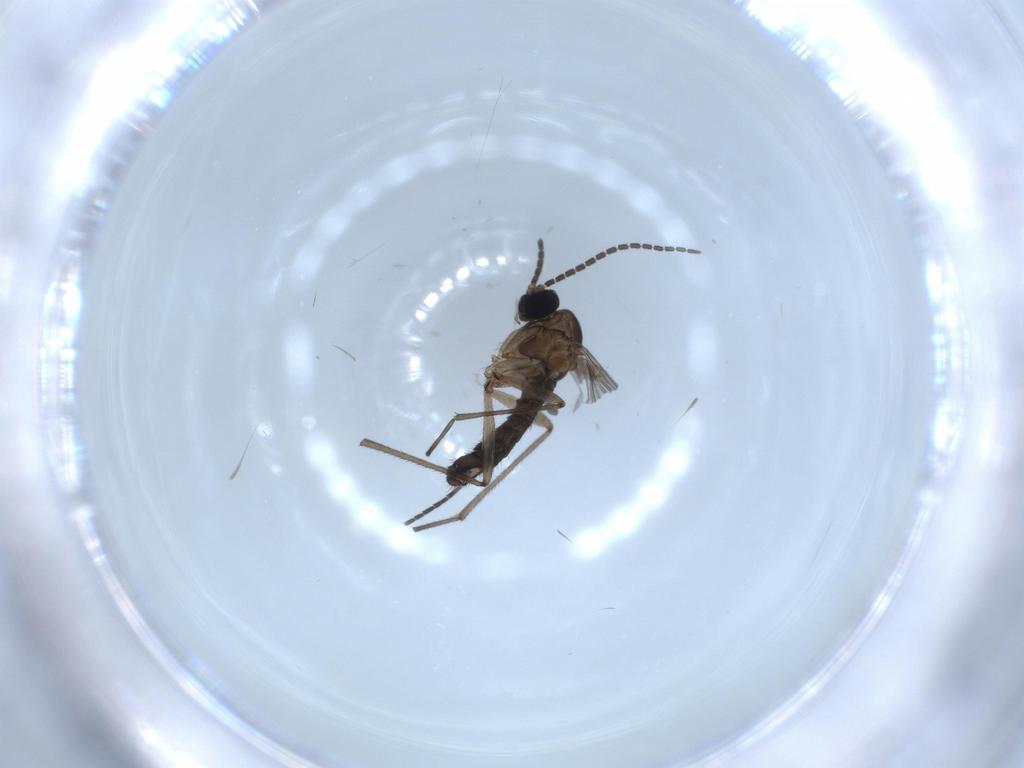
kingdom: Animalia
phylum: Arthropoda
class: Insecta
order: Diptera
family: Sciaridae
